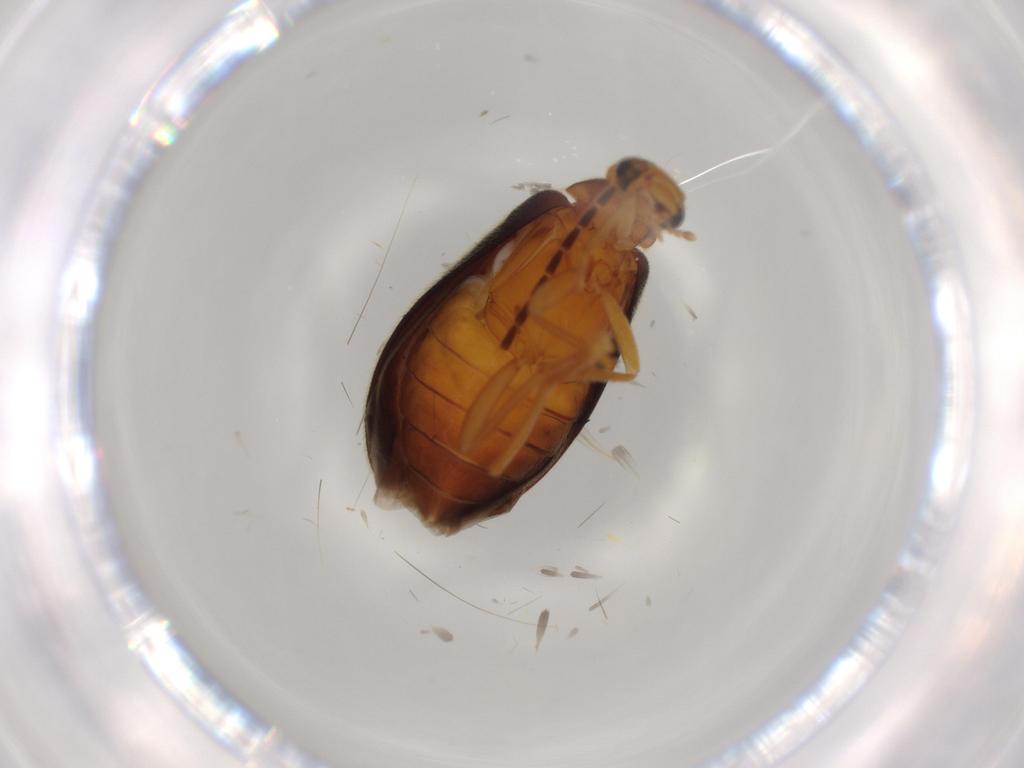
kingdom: Animalia
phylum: Arthropoda
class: Insecta
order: Coleoptera
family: Scraptiidae
